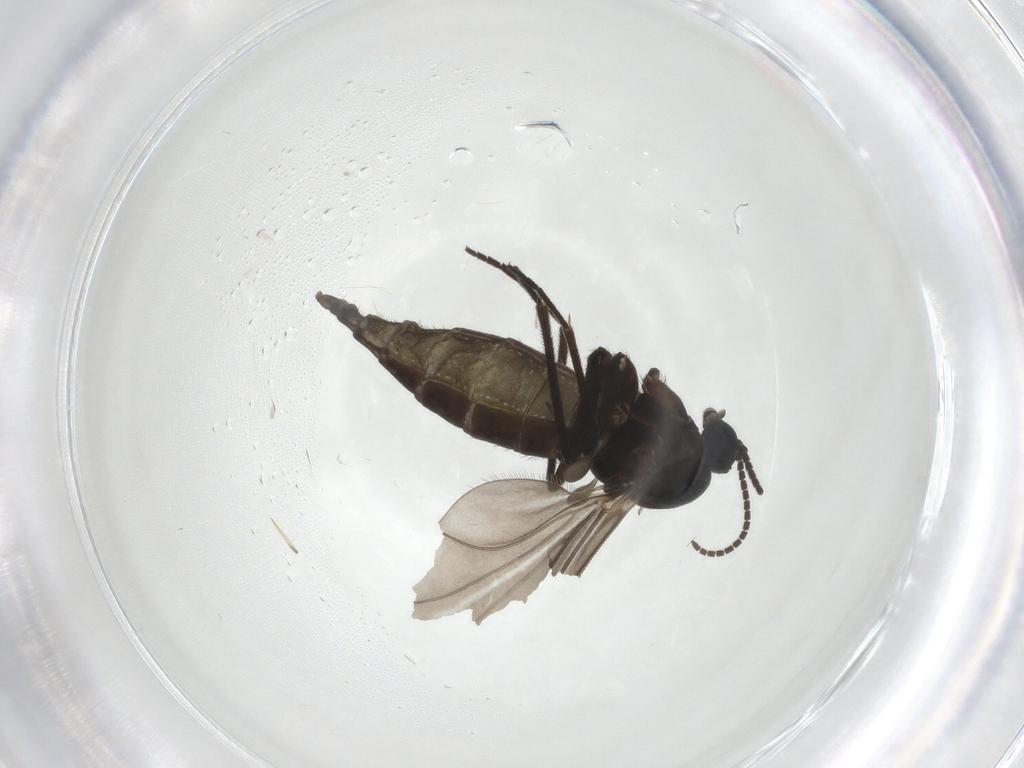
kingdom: Animalia
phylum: Arthropoda
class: Insecta
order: Diptera
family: Sciaridae
